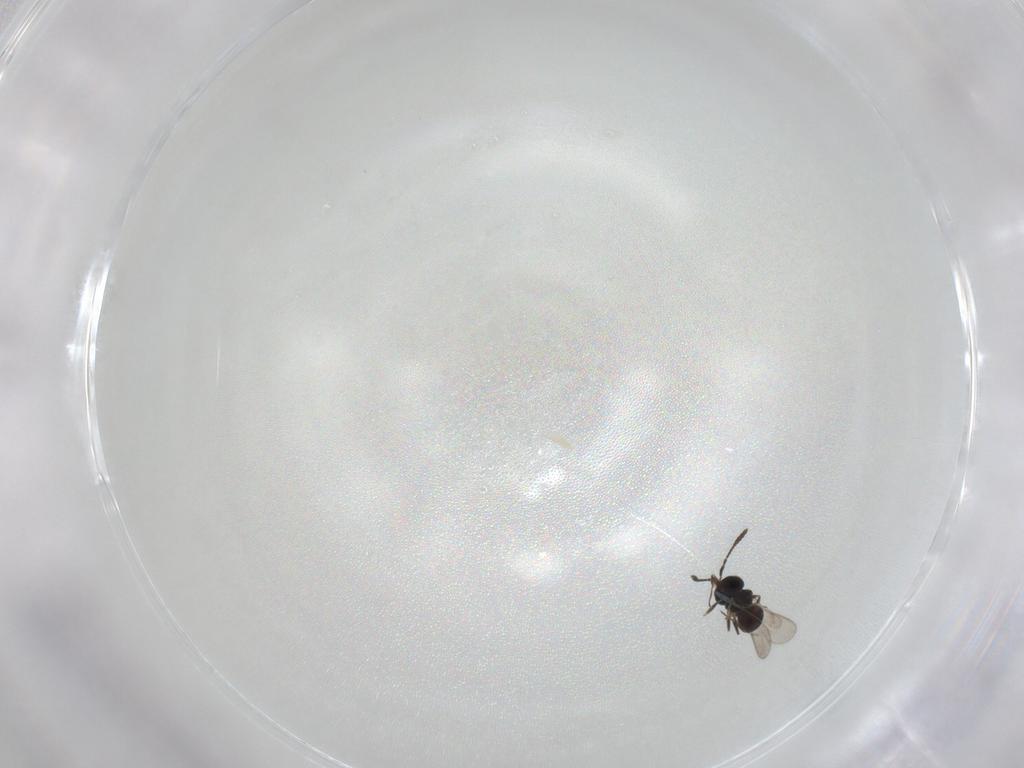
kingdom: Animalia
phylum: Arthropoda
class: Insecta
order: Hymenoptera
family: Scelionidae
